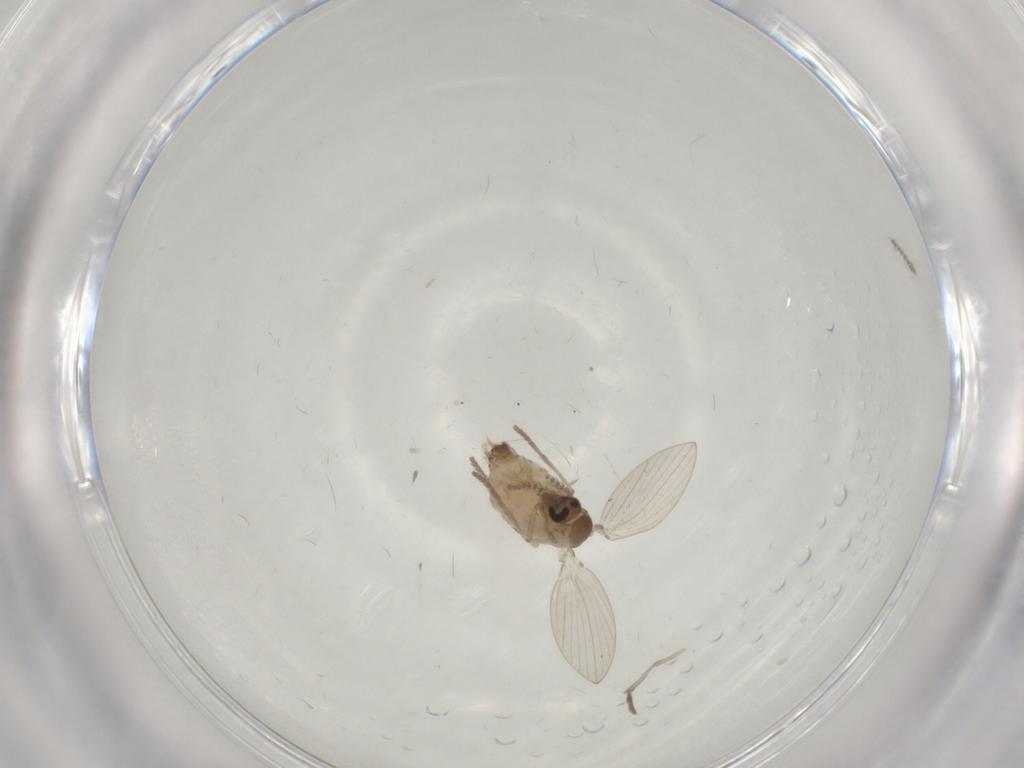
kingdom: Animalia
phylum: Arthropoda
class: Insecta
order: Diptera
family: Psychodidae
